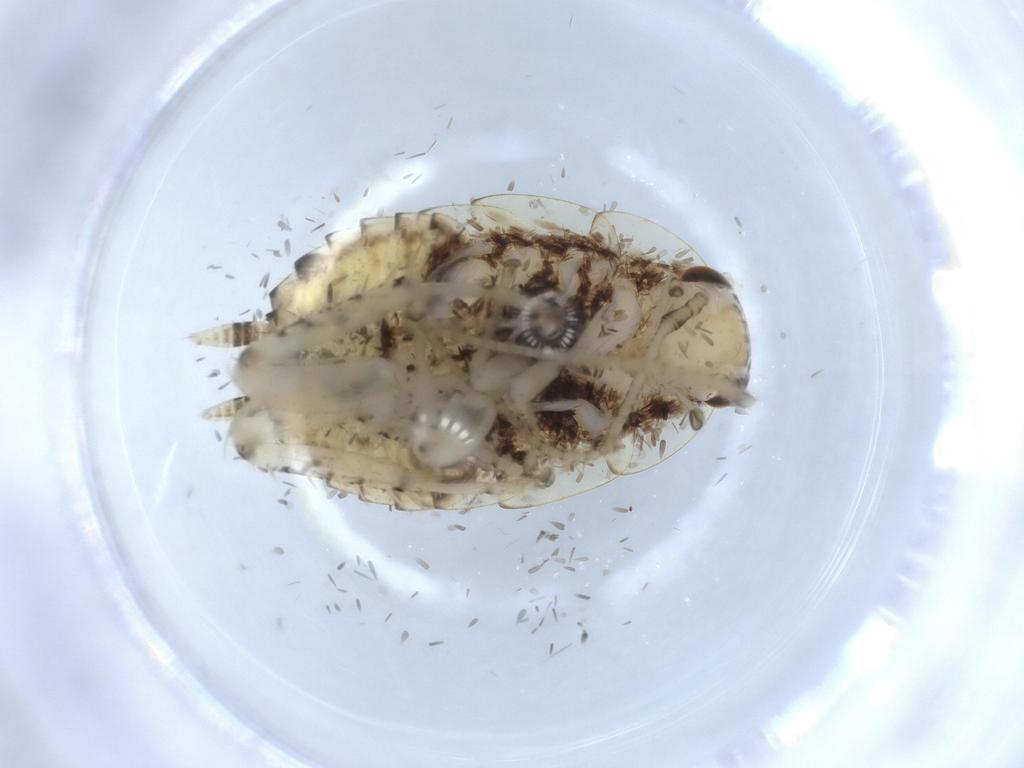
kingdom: Animalia
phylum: Arthropoda
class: Insecta
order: Blattodea
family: Ectobiidae
